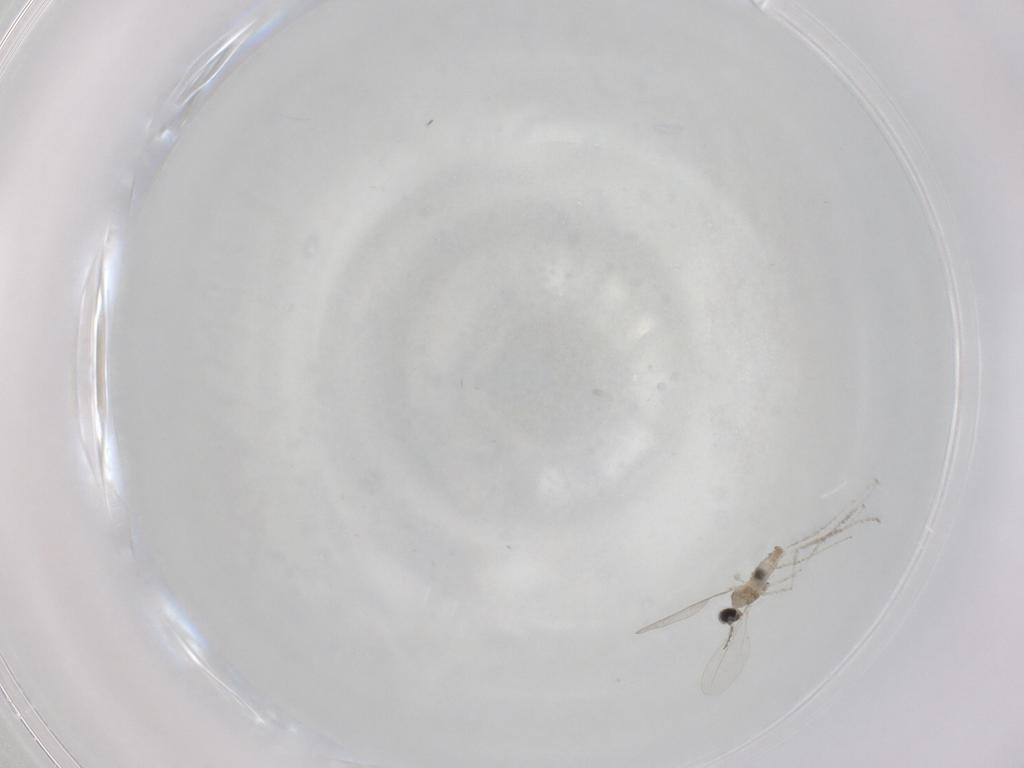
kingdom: Animalia
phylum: Arthropoda
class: Insecta
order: Diptera
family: Cecidomyiidae
